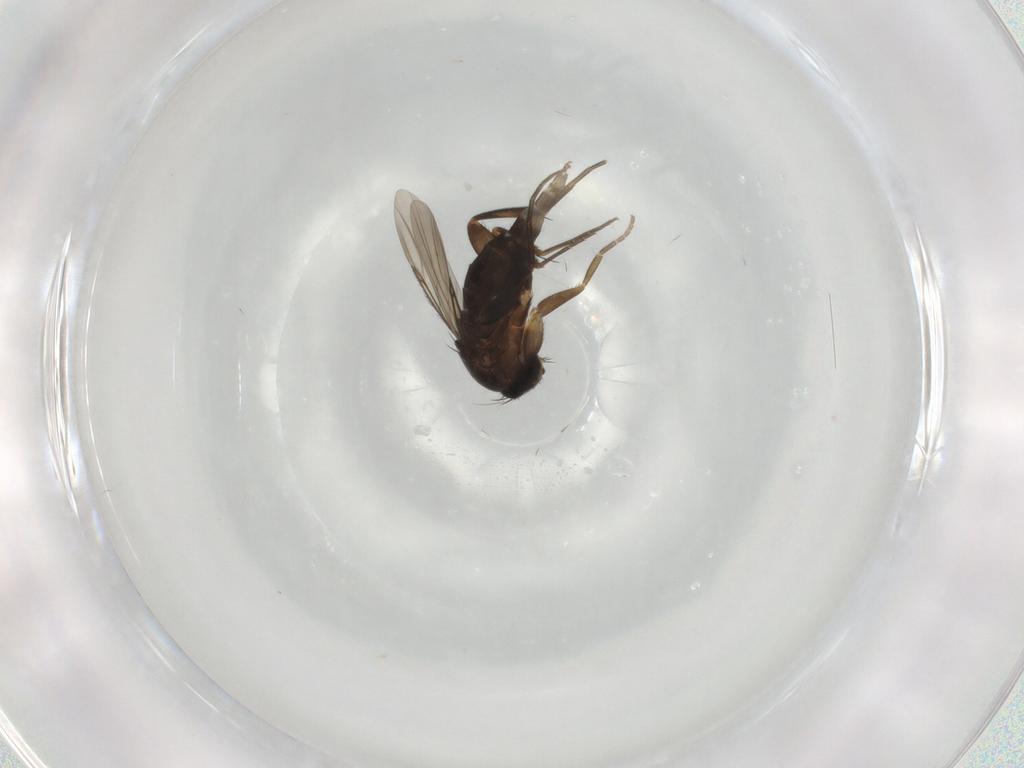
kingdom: Animalia
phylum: Arthropoda
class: Insecta
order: Diptera
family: Phoridae
